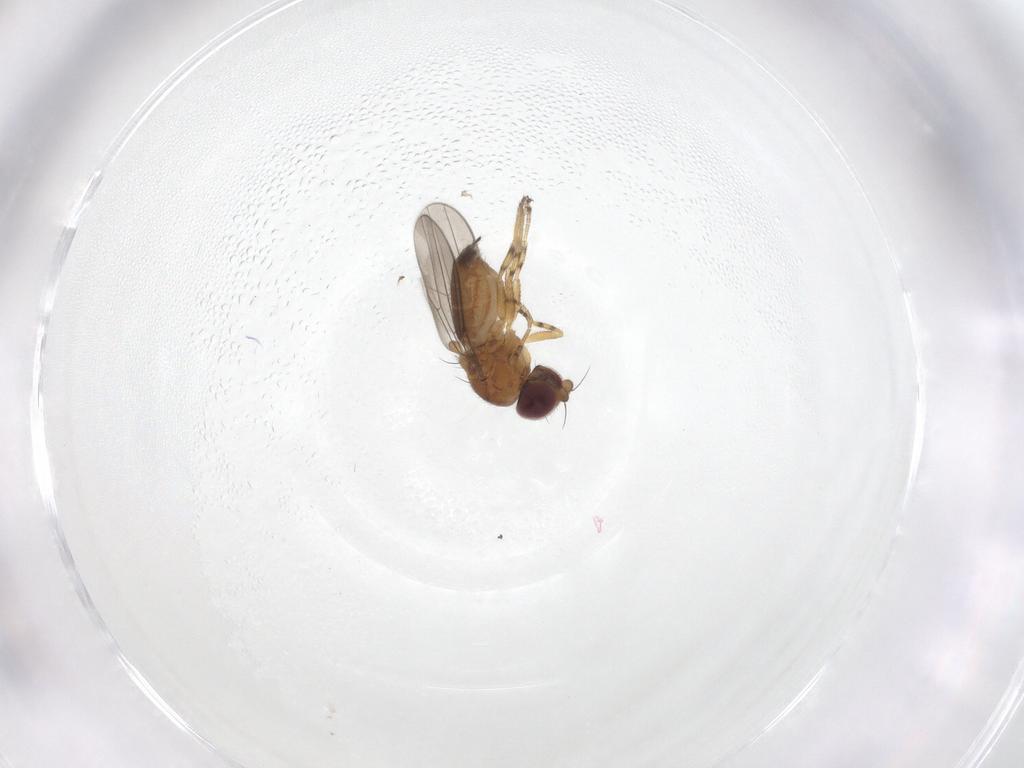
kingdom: Animalia
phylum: Arthropoda
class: Insecta
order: Diptera
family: Chloropidae
